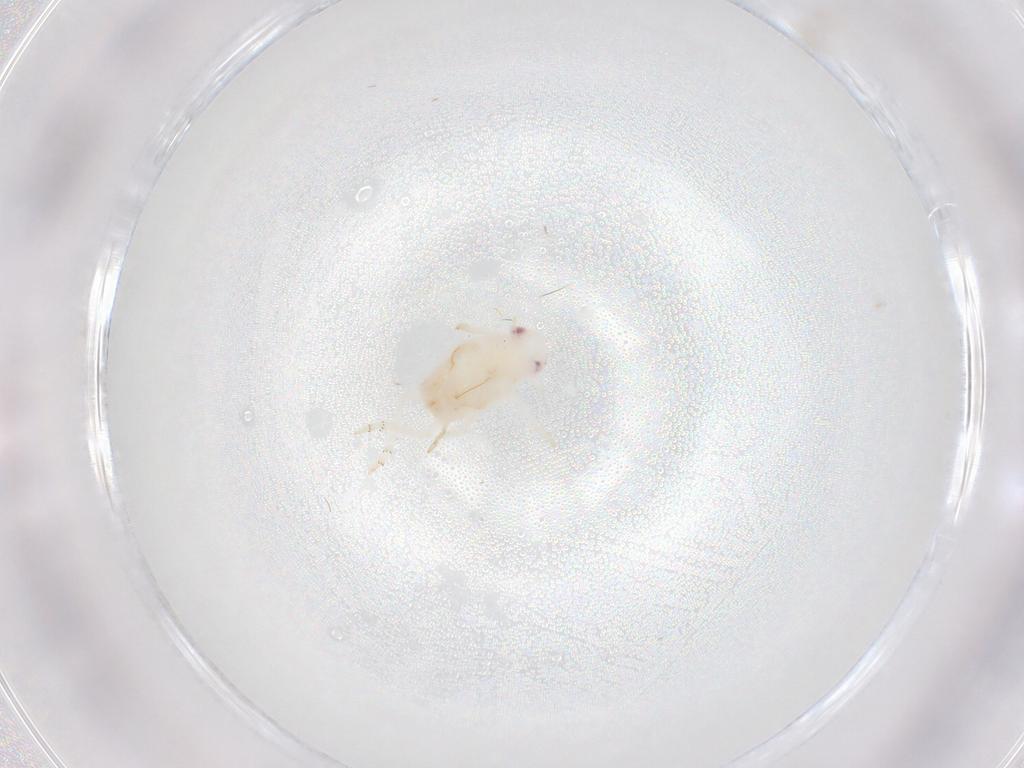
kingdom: Animalia
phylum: Arthropoda
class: Insecta
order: Hemiptera
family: Flatidae
